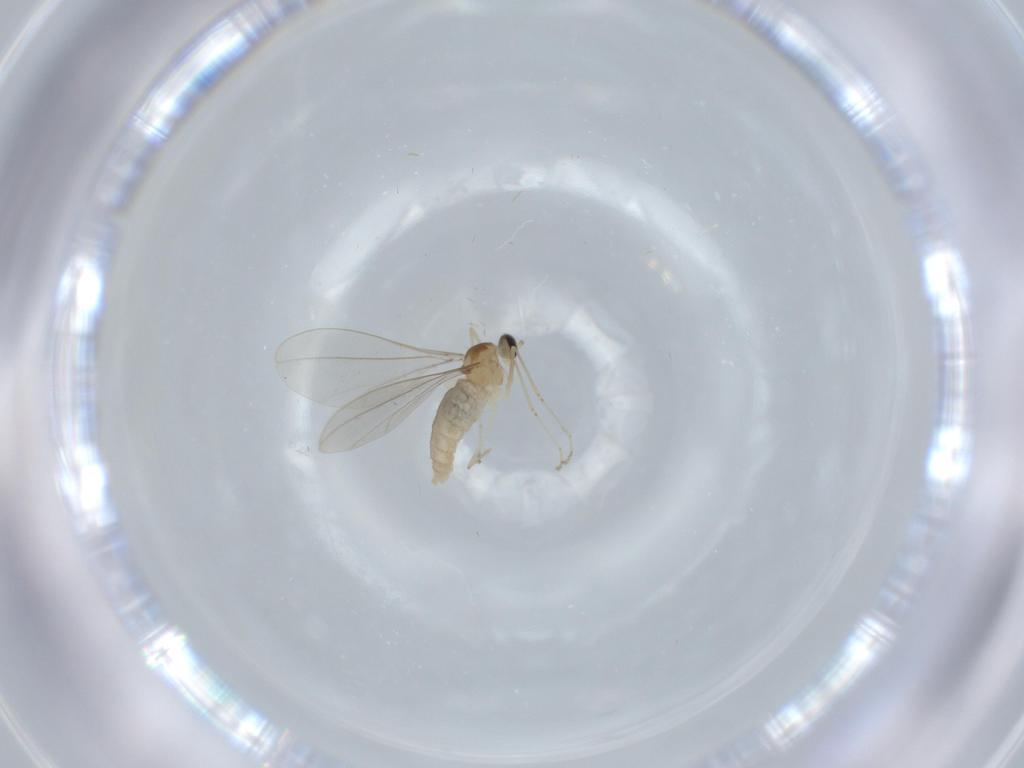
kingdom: Animalia
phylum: Arthropoda
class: Insecta
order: Diptera
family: Cecidomyiidae
